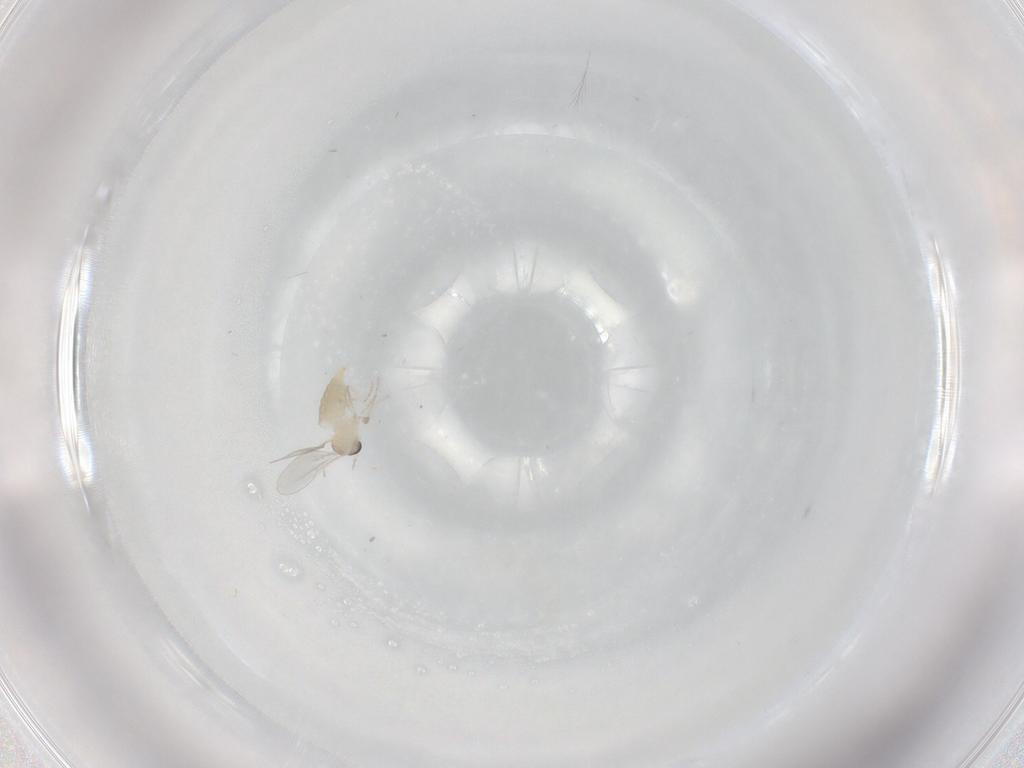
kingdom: Animalia
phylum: Arthropoda
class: Insecta
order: Diptera
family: Cecidomyiidae
